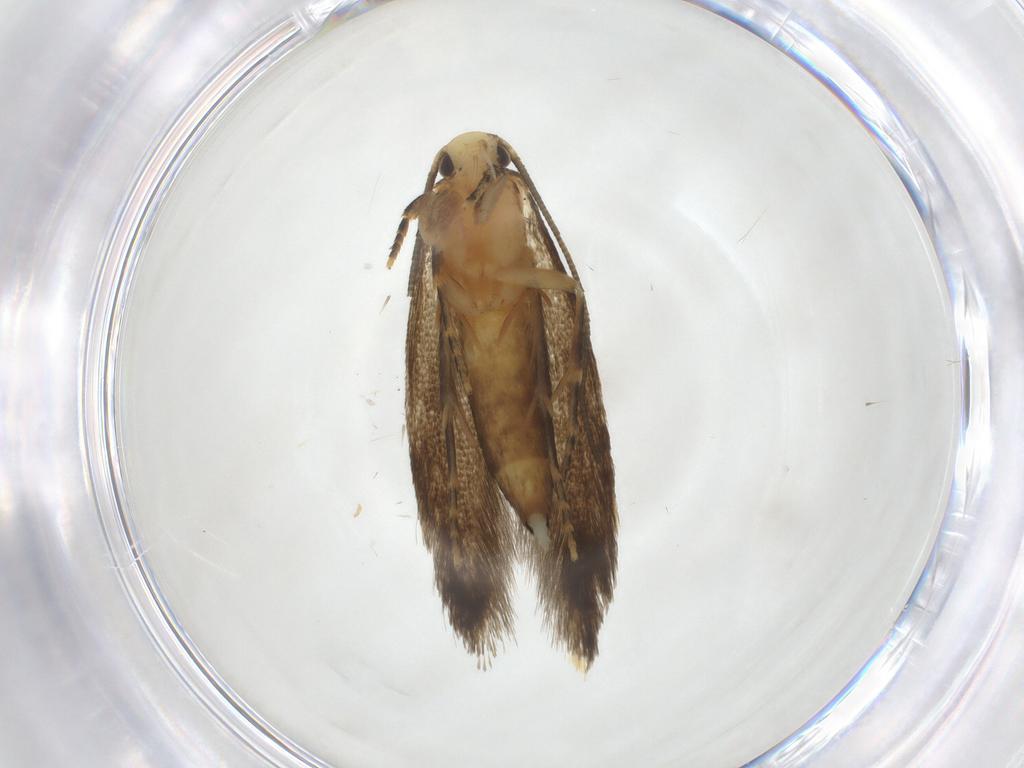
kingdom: Animalia
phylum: Arthropoda
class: Insecta
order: Lepidoptera
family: Tineidae
